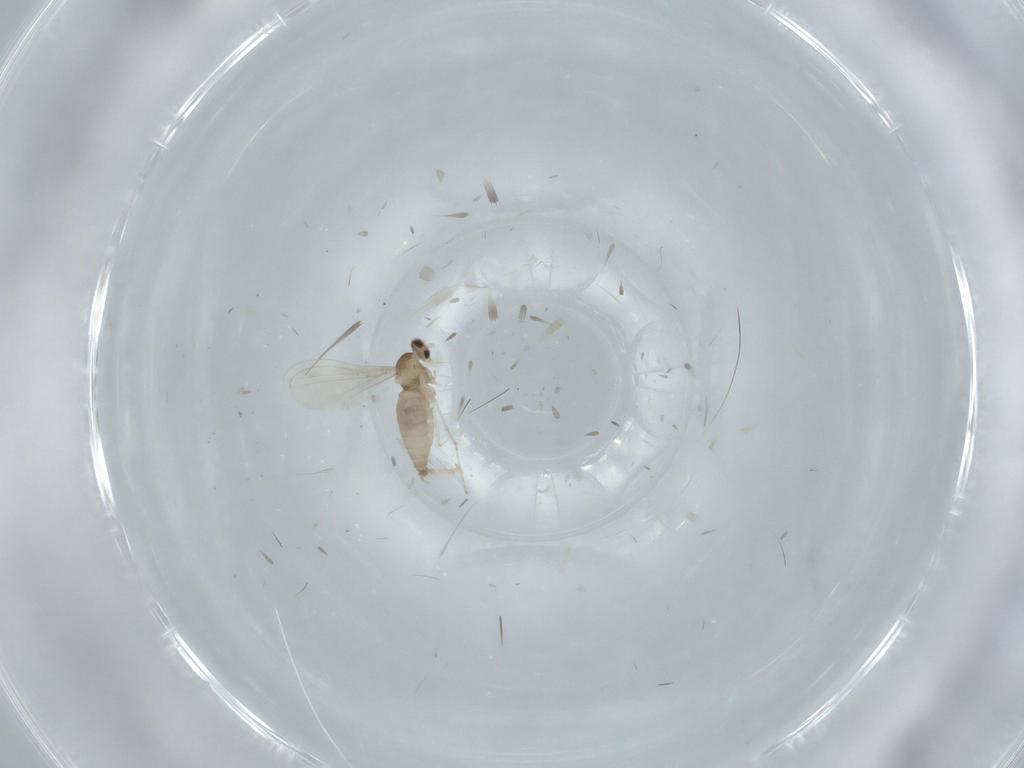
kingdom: Animalia
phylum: Arthropoda
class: Insecta
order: Diptera
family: Cecidomyiidae
